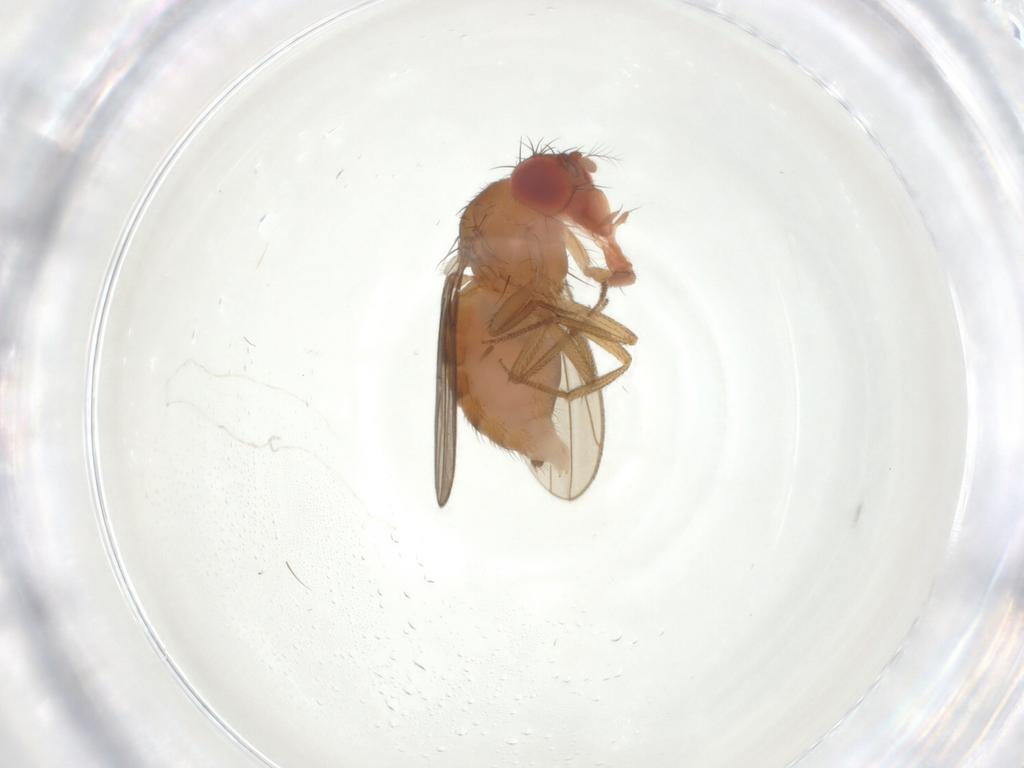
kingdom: Animalia
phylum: Arthropoda
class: Insecta
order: Diptera
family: Drosophilidae
